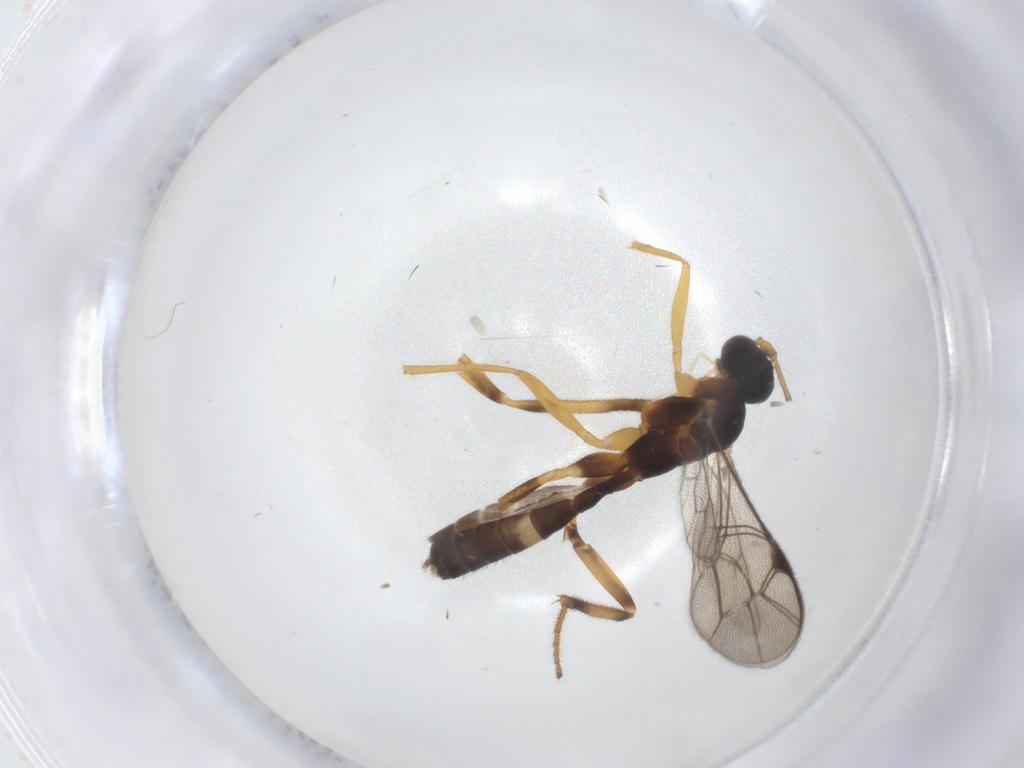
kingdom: Animalia
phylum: Arthropoda
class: Insecta
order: Hymenoptera
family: Ichneumonidae
